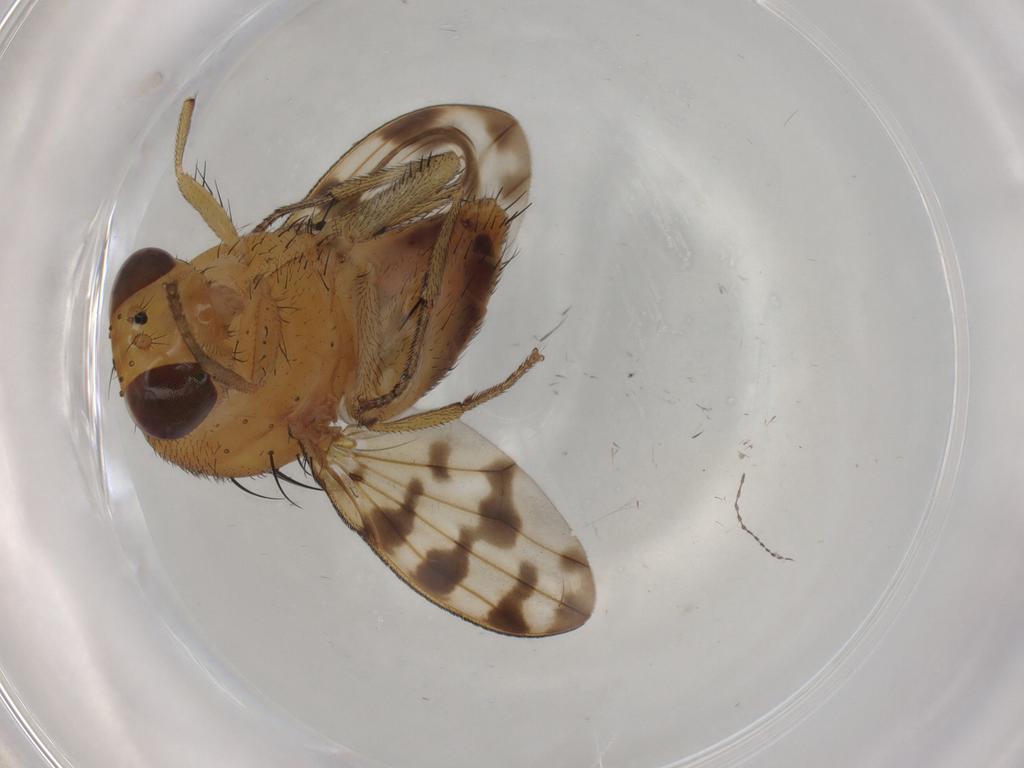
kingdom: Animalia
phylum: Arthropoda
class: Insecta
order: Diptera
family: Ceratopogonidae
